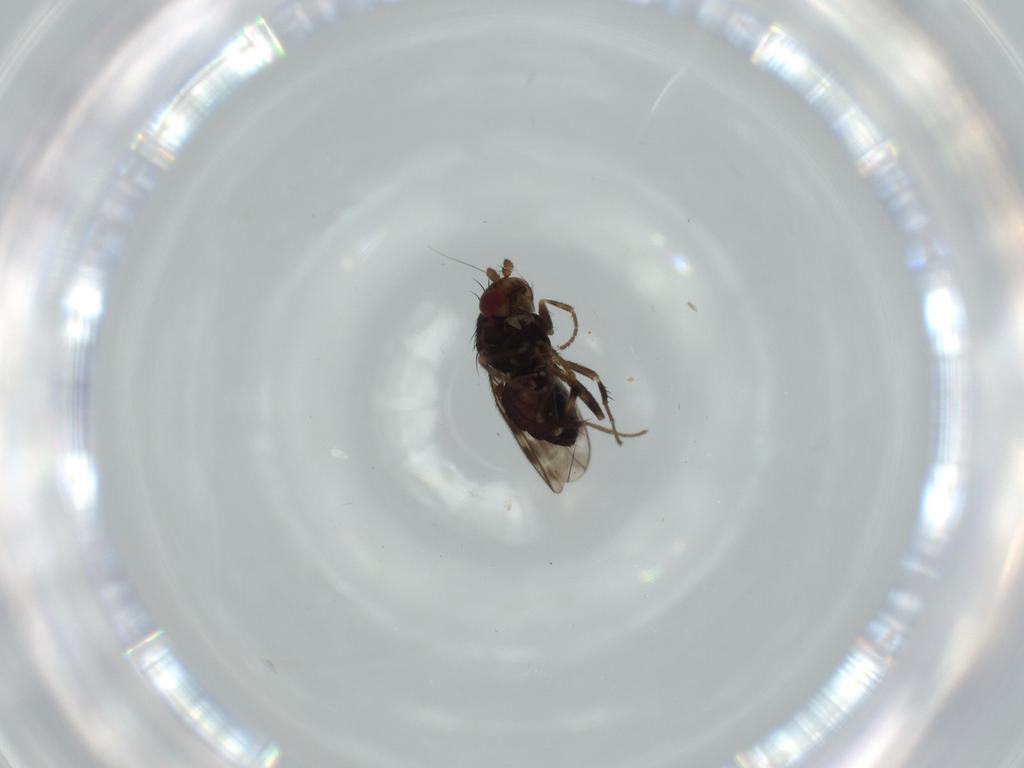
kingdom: Animalia
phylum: Arthropoda
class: Insecta
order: Diptera
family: Sphaeroceridae
